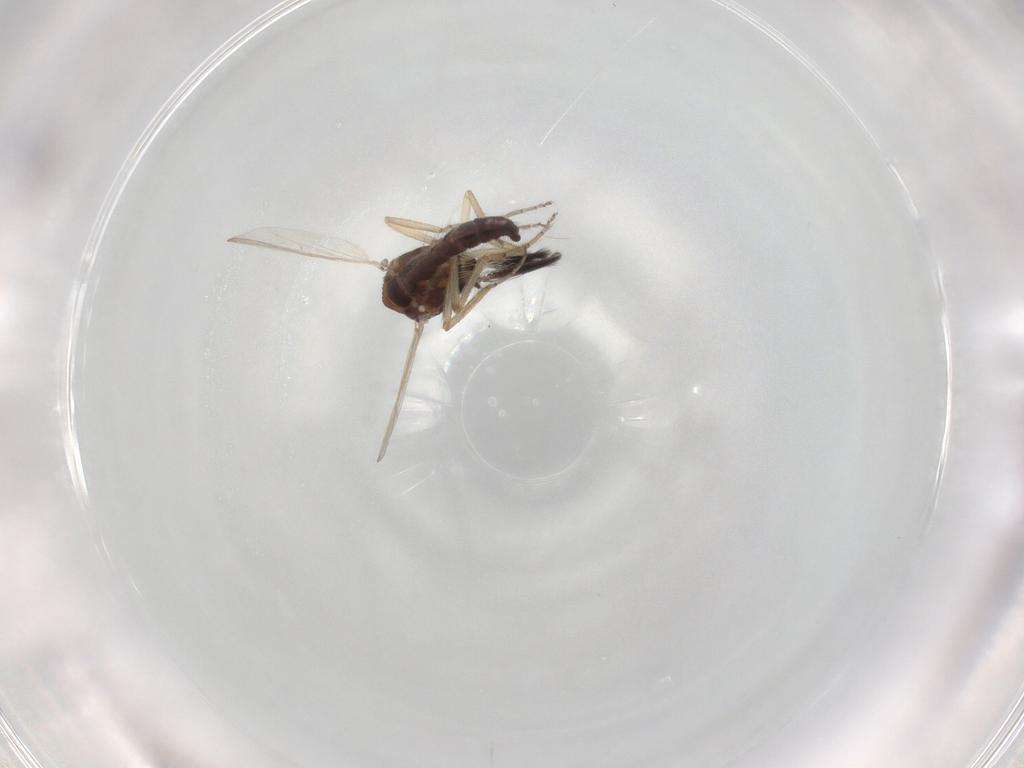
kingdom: Animalia
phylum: Arthropoda
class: Insecta
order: Diptera
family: Ceratopogonidae
